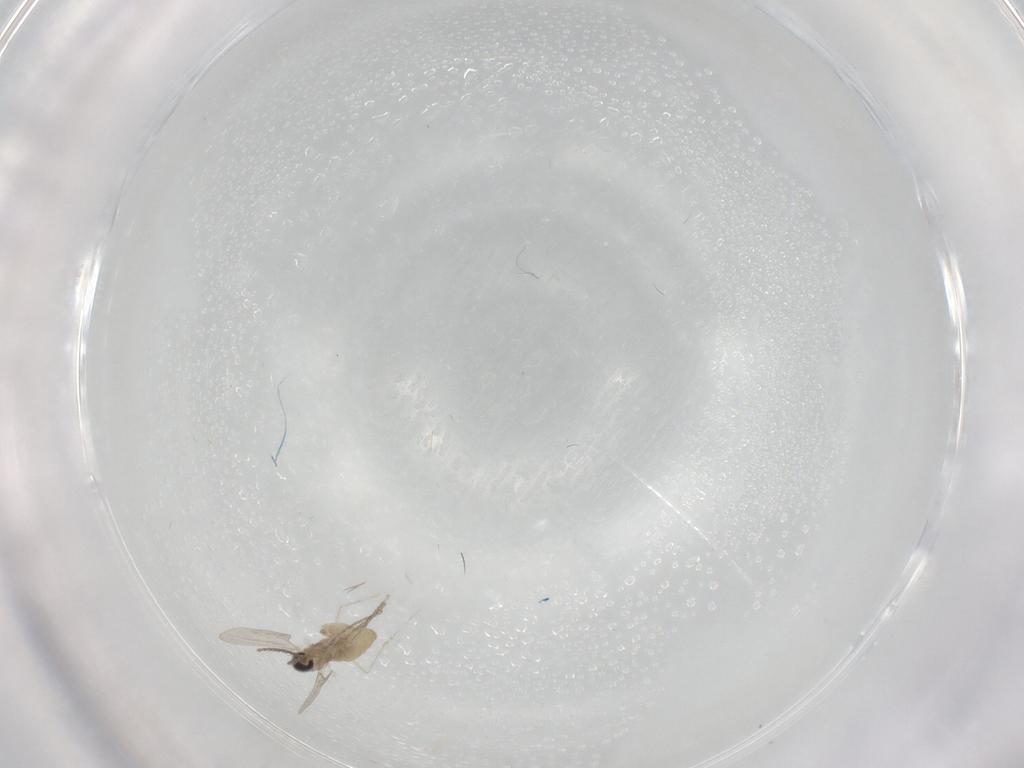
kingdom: Animalia
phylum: Arthropoda
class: Insecta
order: Diptera
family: Cecidomyiidae
